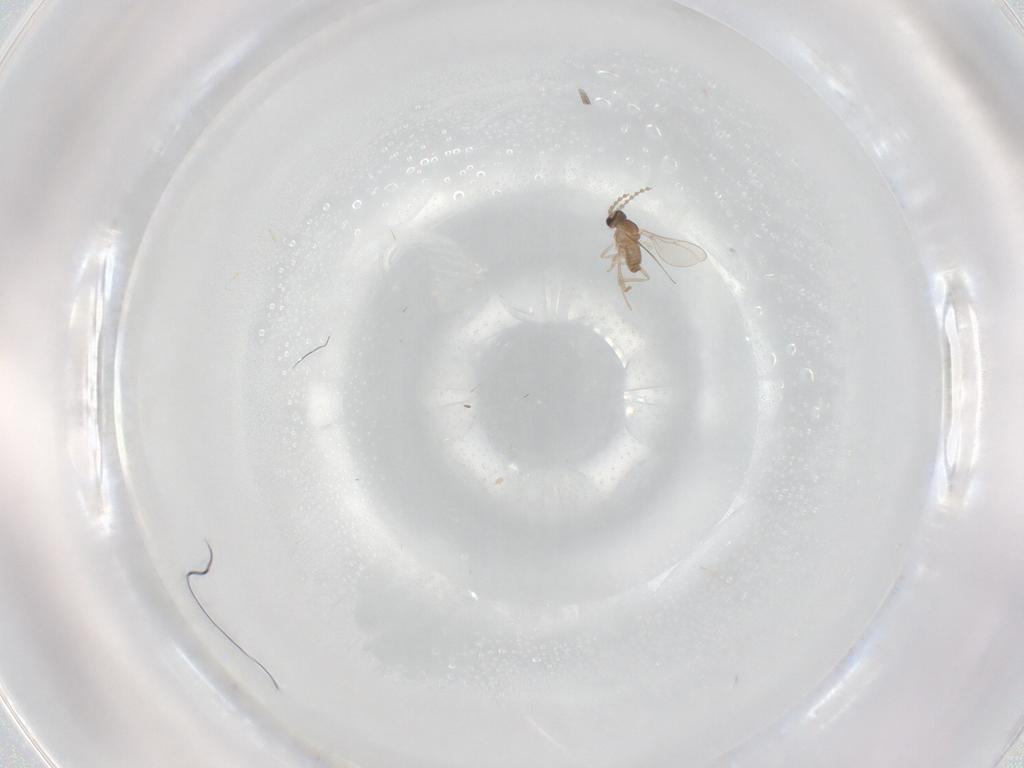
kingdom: Animalia
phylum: Arthropoda
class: Insecta
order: Diptera
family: Cecidomyiidae
